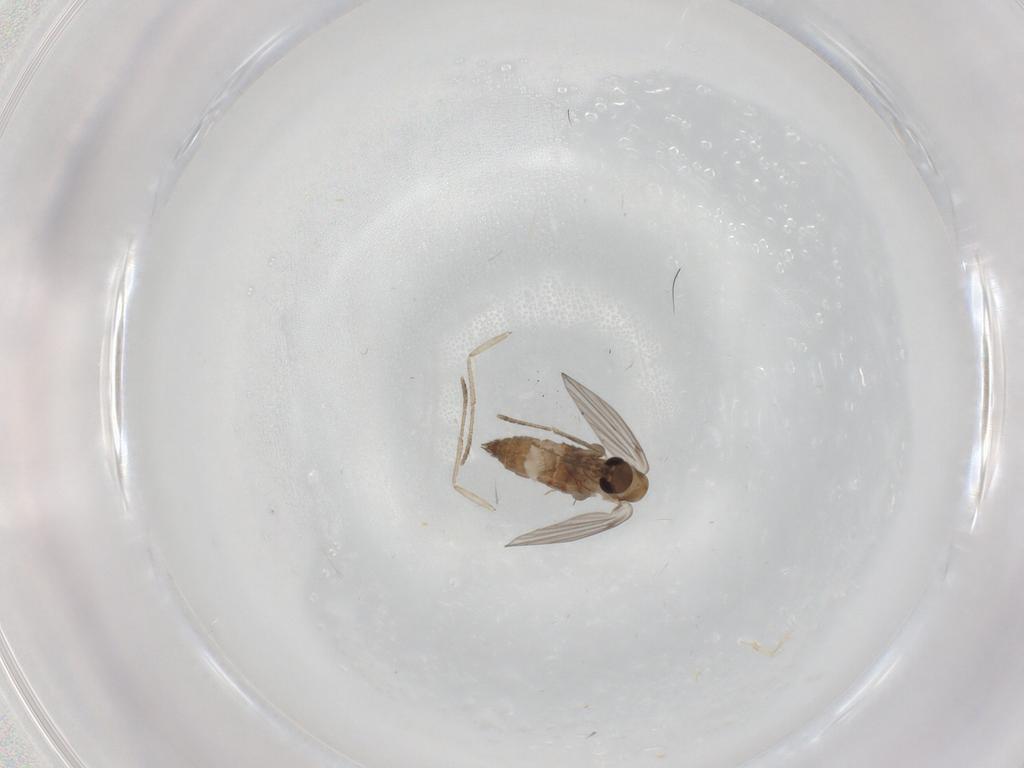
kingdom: Animalia
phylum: Arthropoda
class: Insecta
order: Diptera
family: Psychodidae
